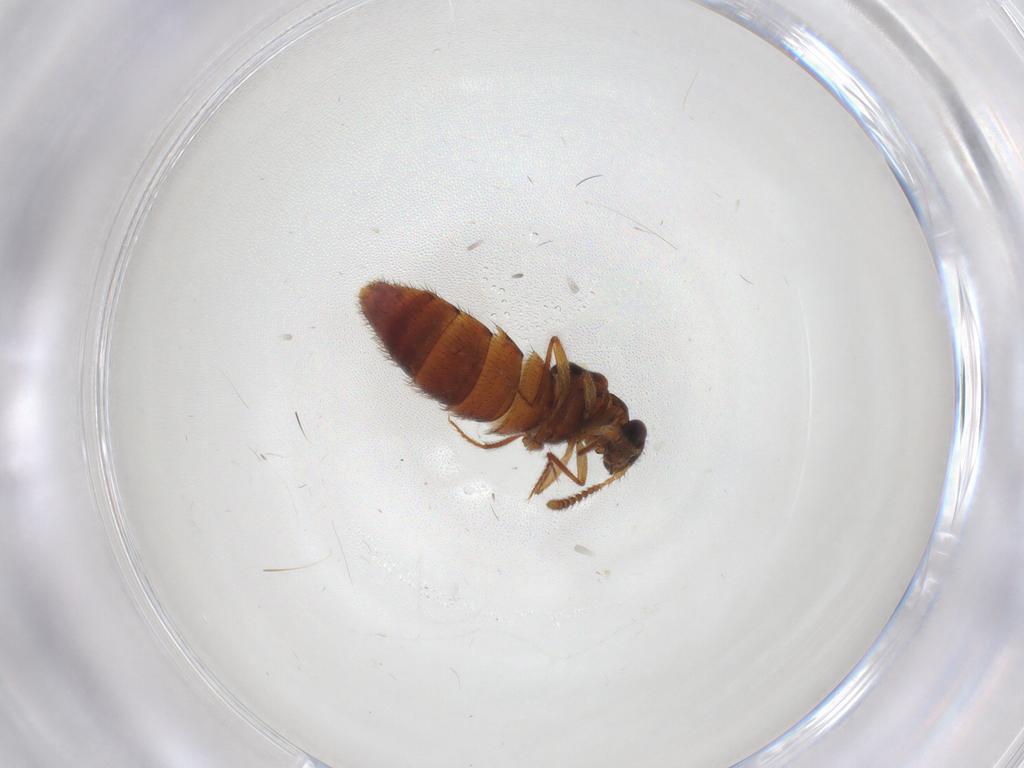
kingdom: Animalia
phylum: Arthropoda
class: Insecta
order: Coleoptera
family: Staphylinidae
